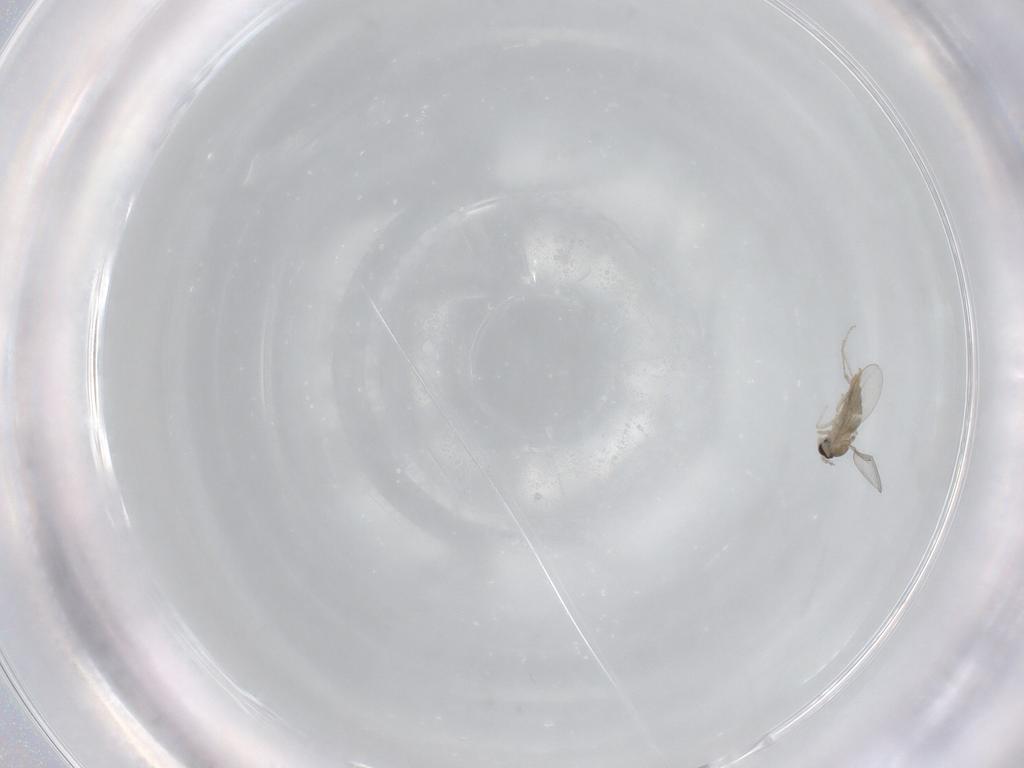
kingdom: Animalia
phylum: Arthropoda
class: Insecta
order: Diptera
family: Cecidomyiidae
